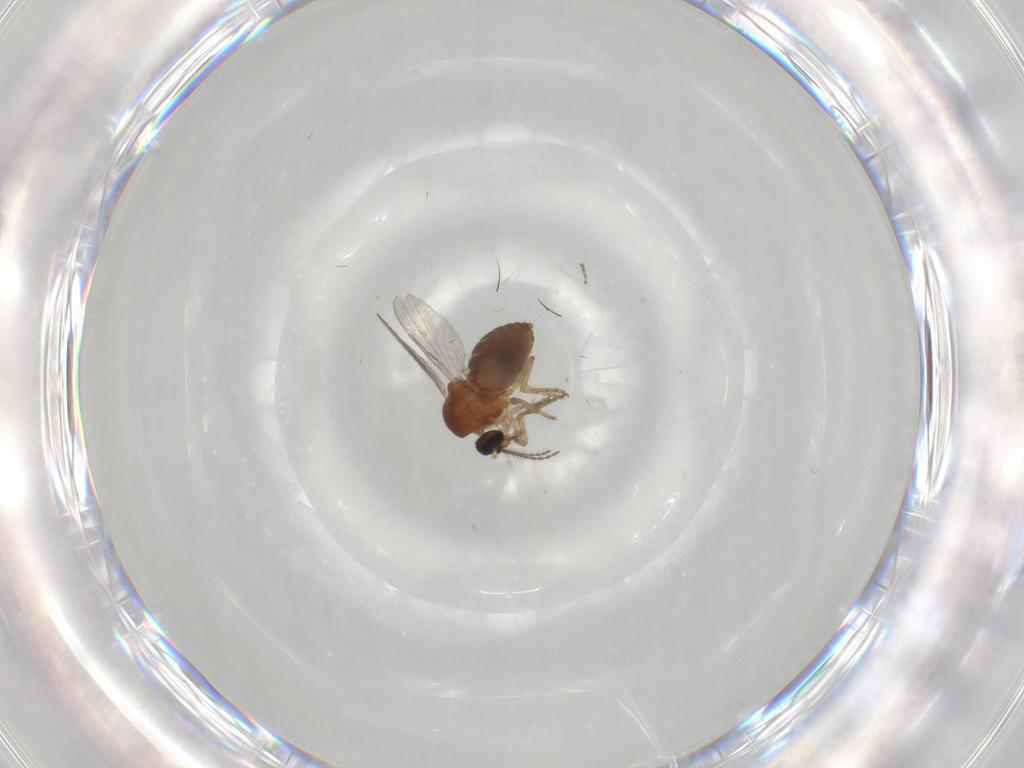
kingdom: Animalia
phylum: Arthropoda
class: Insecta
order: Diptera
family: Ceratopogonidae
